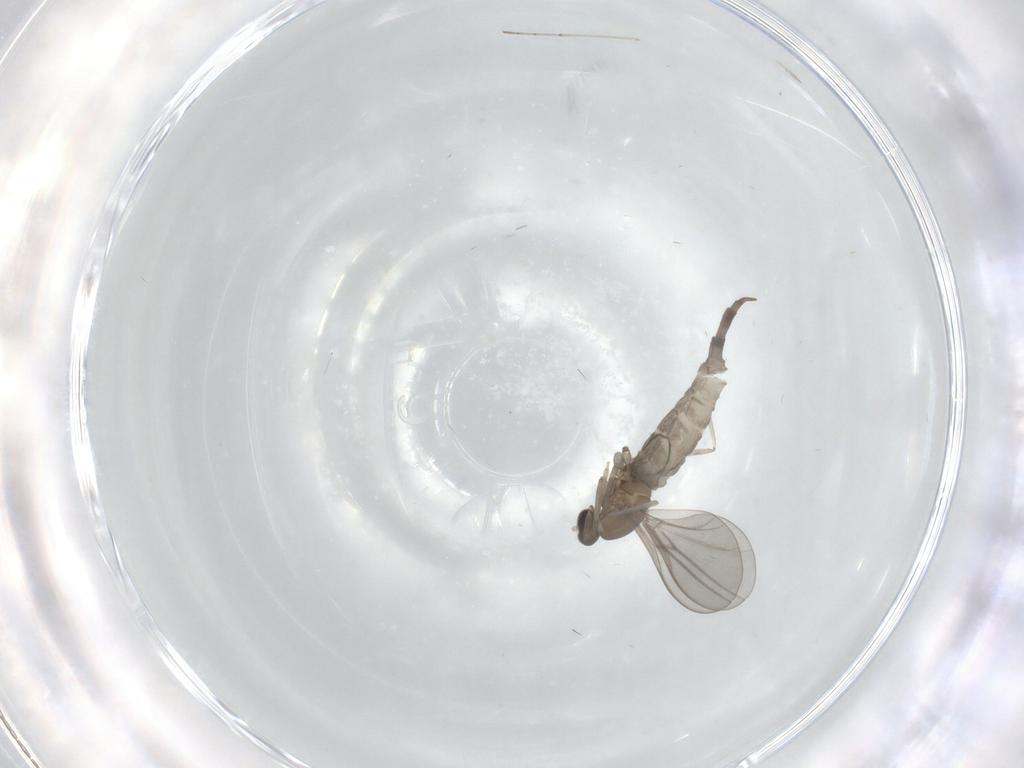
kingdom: Animalia
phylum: Arthropoda
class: Insecta
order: Diptera
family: Cecidomyiidae
